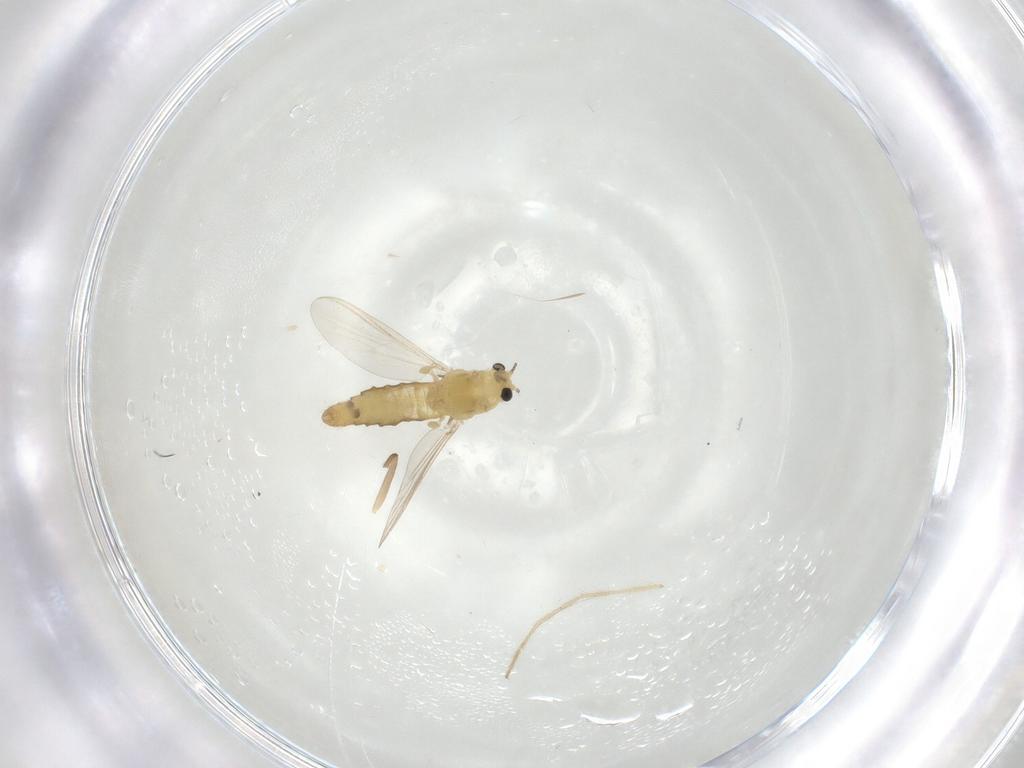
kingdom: Animalia
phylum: Arthropoda
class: Insecta
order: Diptera
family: Chironomidae
